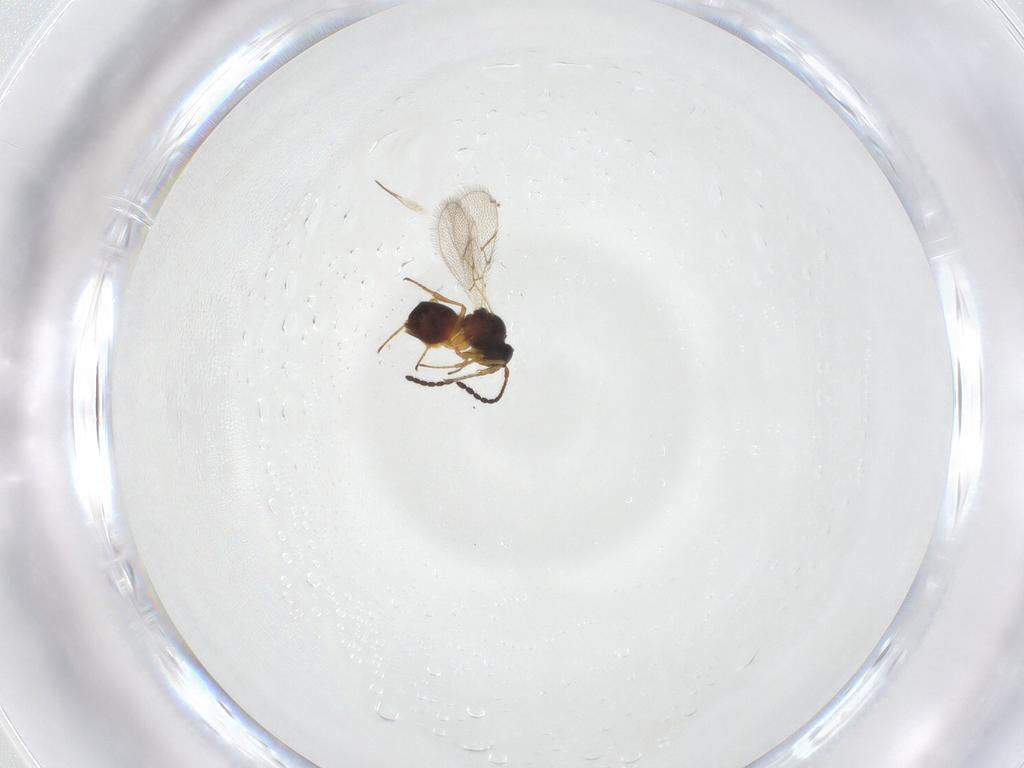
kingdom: Animalia
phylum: Arthropoda
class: Insecta
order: Hymenoptera
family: Figitidae
